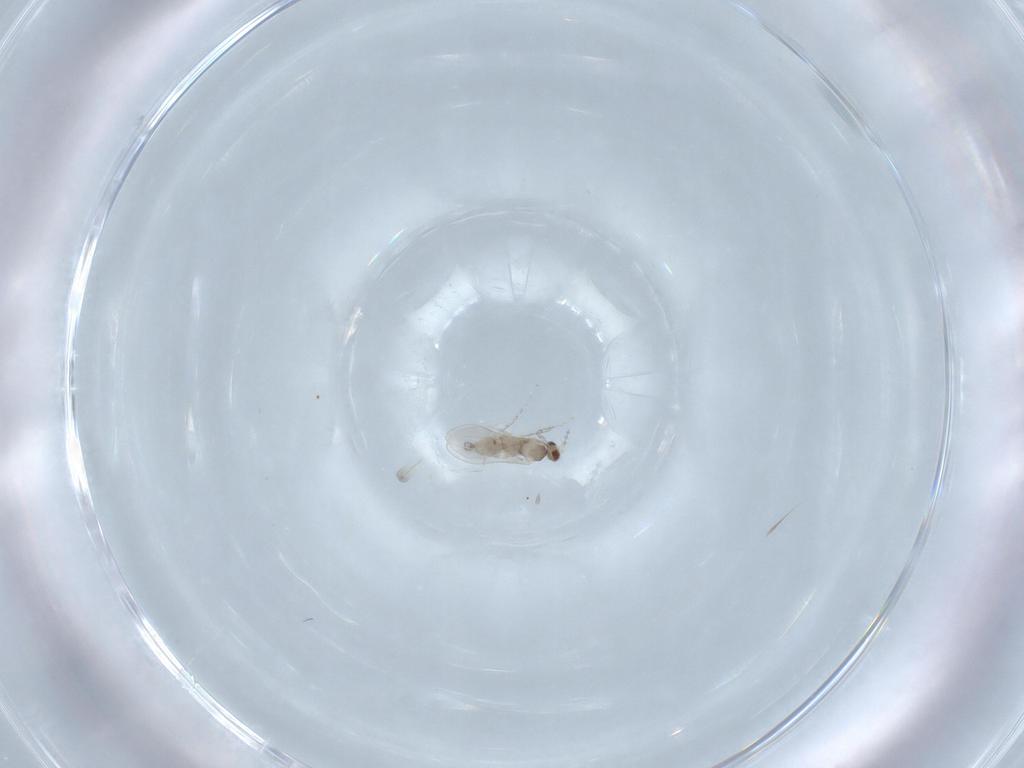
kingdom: Animalia
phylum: Arthropoda
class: Insecta
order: Diptera
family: Cecidomyiidae
